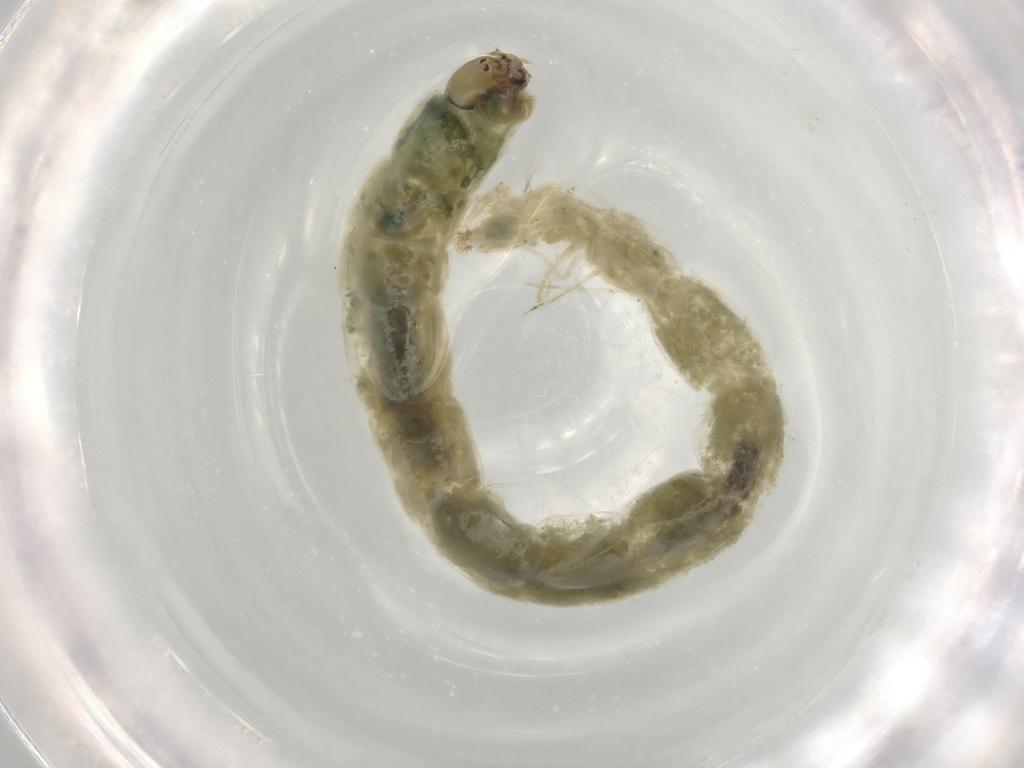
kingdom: Animalia
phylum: Arthropoda
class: Insecta
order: Diptera
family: Chironomidae
